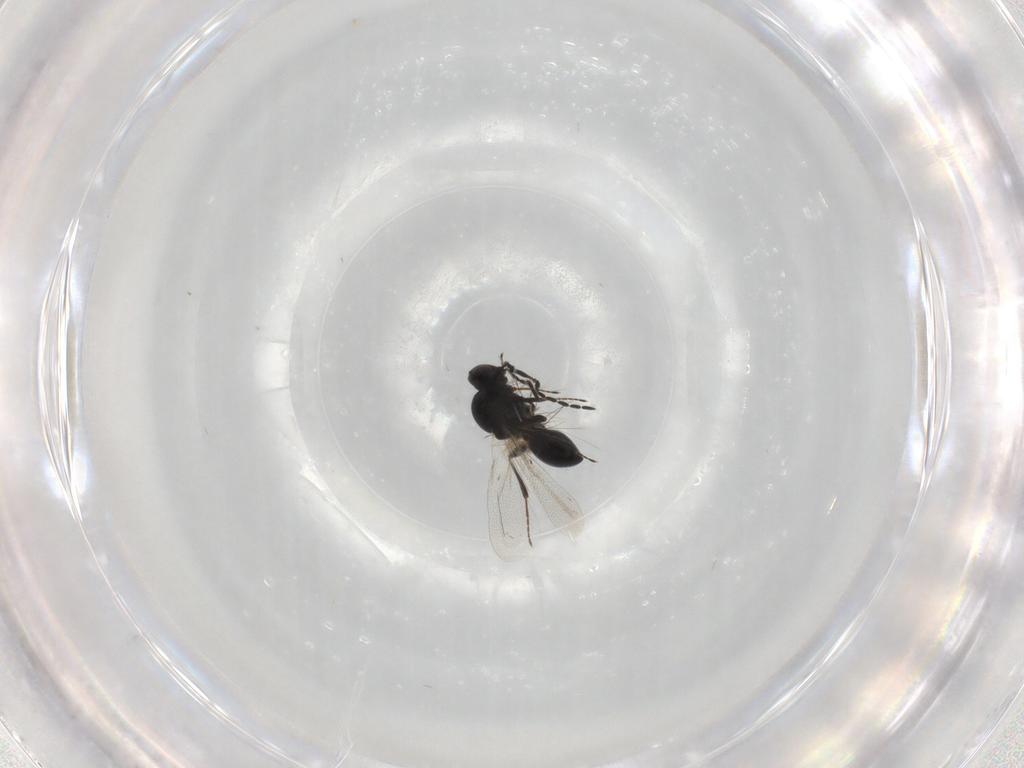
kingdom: Animalia
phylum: Arthropoda
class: Insecta
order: Hymenoptera
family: Platygastridae
